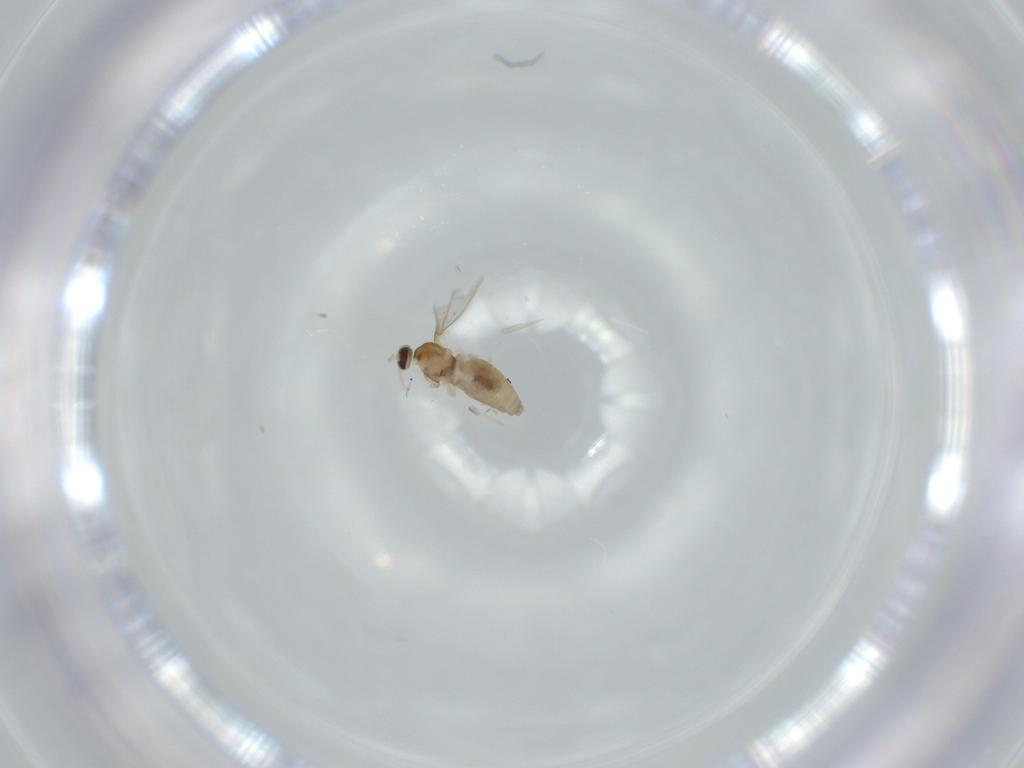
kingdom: Animalia
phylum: Arthropoda
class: Insecta
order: Diptera
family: Cecidomyiidae
